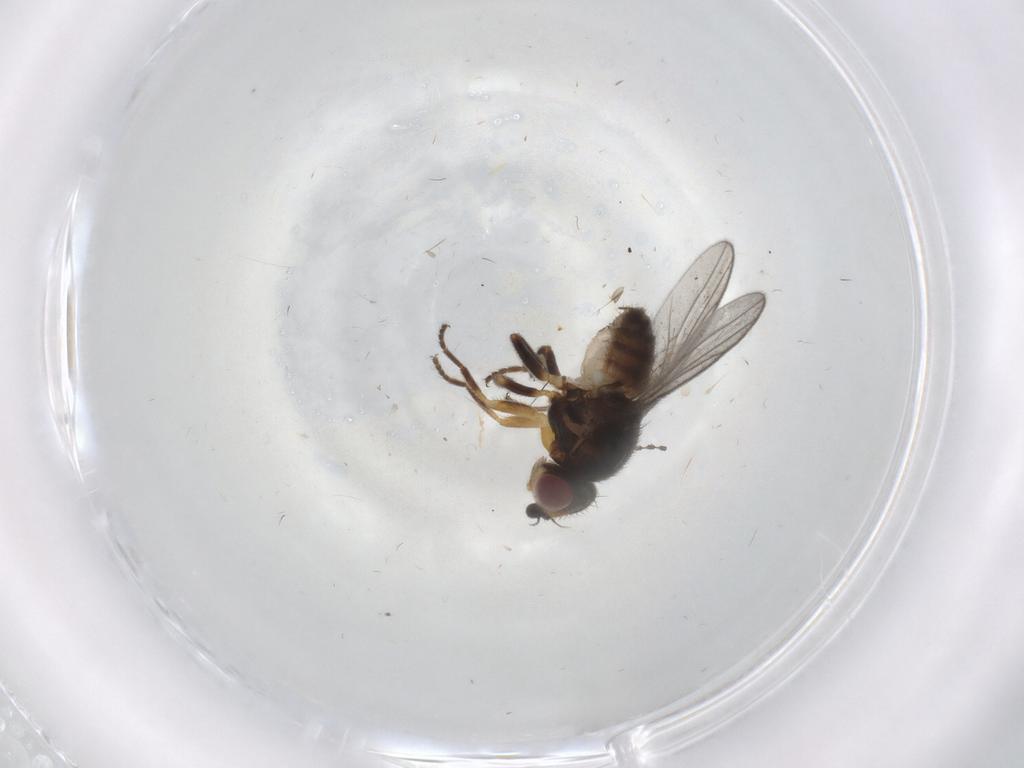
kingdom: Animalia
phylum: Arthropoda
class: Insecta
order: Diptera
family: Chloropidae
